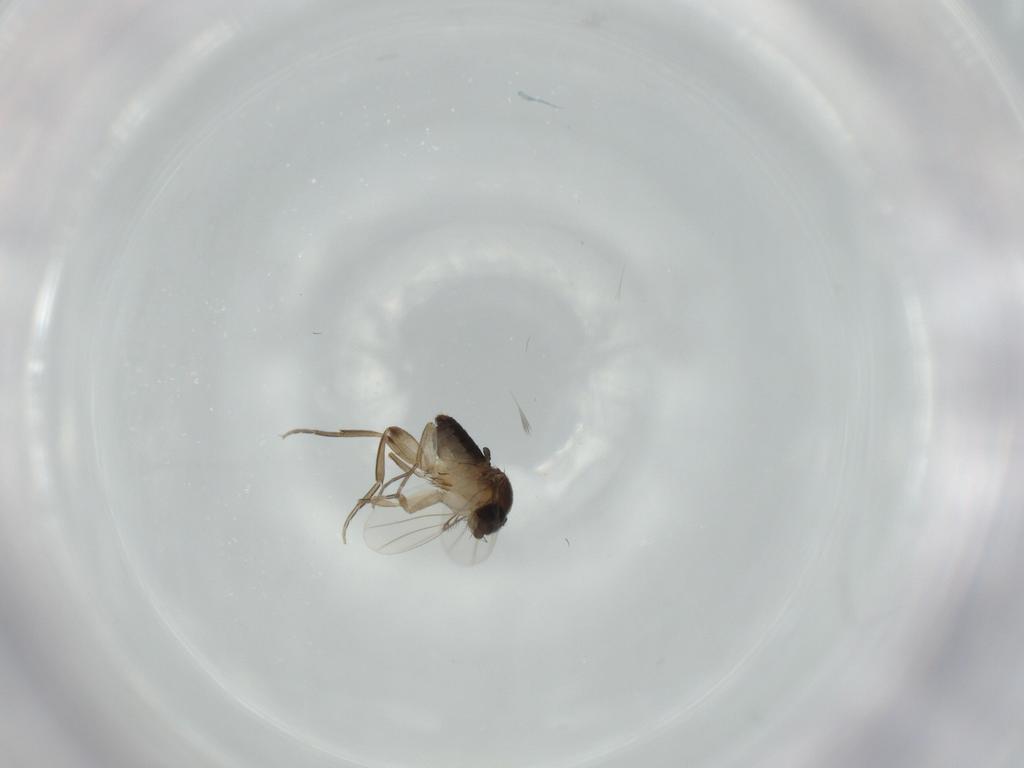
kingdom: Animalia
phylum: Arthropoda
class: Insecta
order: Diptera
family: Phoridae
